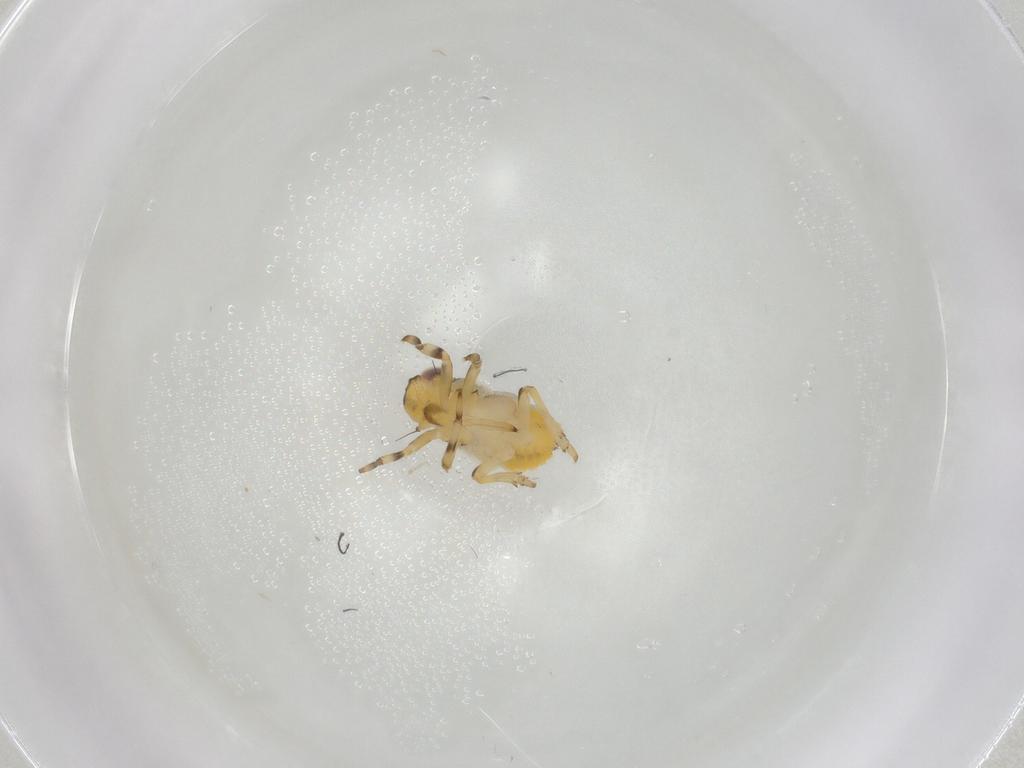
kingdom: Animalia
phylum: Arthropoda
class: Insecta
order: Hemiptera
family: Issidae
